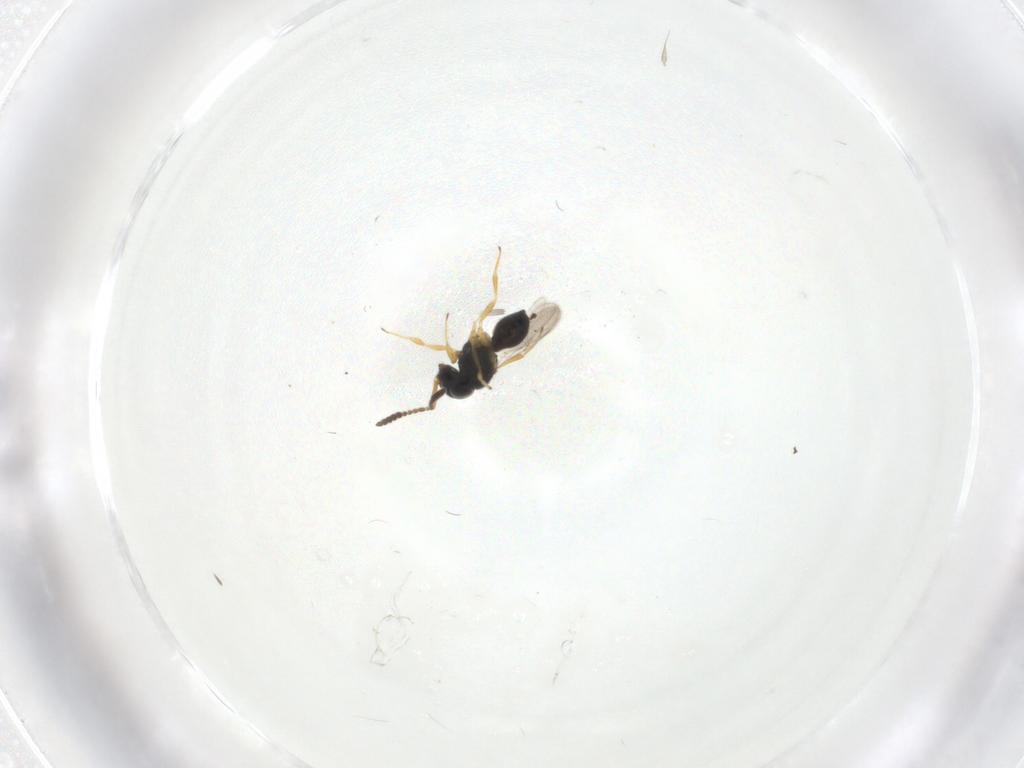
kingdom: Animalia
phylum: Arthropoda
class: Insecta
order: Hymenoptera
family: Scelionidae
